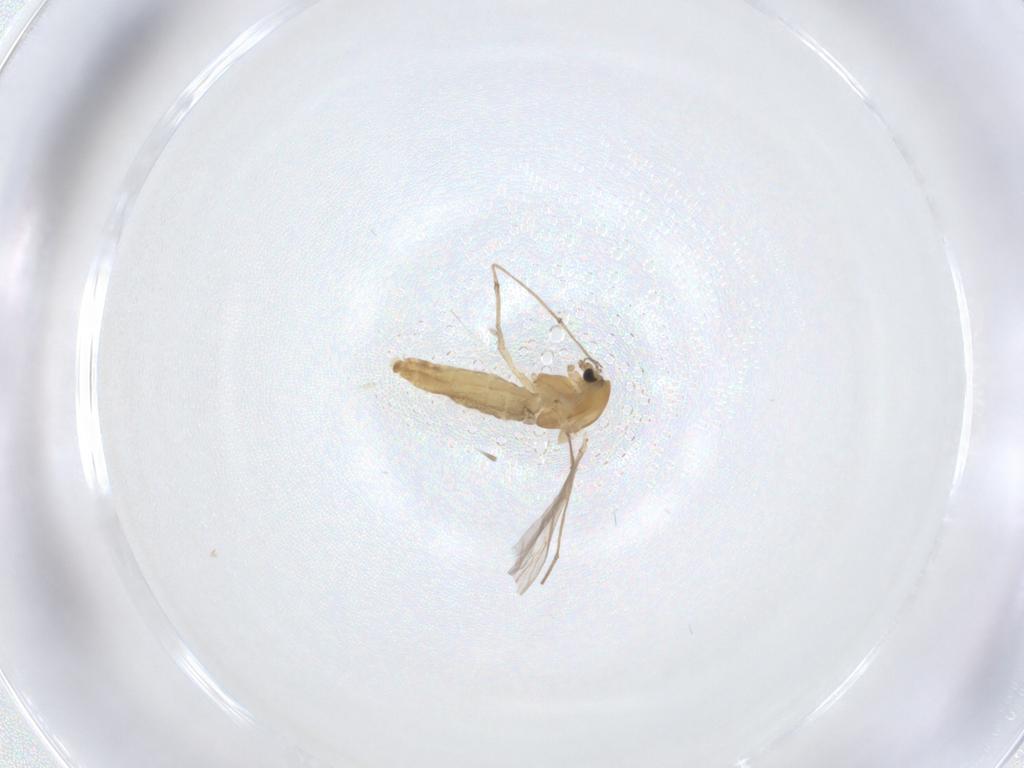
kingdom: Animalia
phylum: Arthropoda
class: Insecta
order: Diptera
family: Chironomidae
